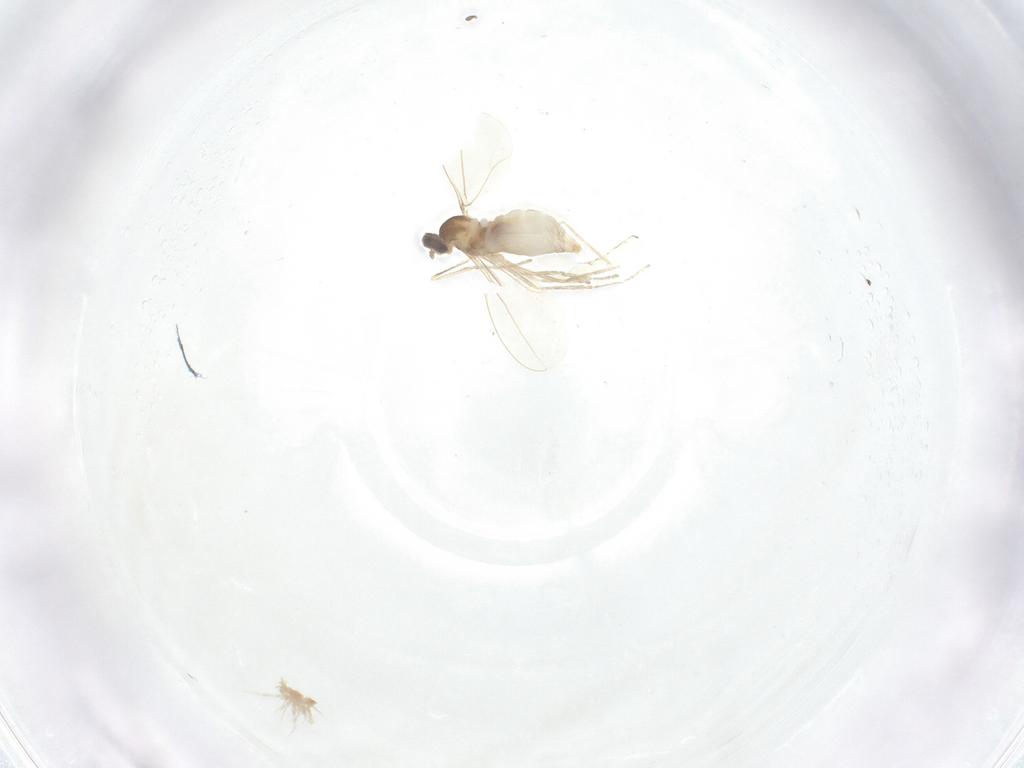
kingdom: Animalia
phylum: Arthropoda
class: Insecta
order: Diptera
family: Cecidomyiidae
